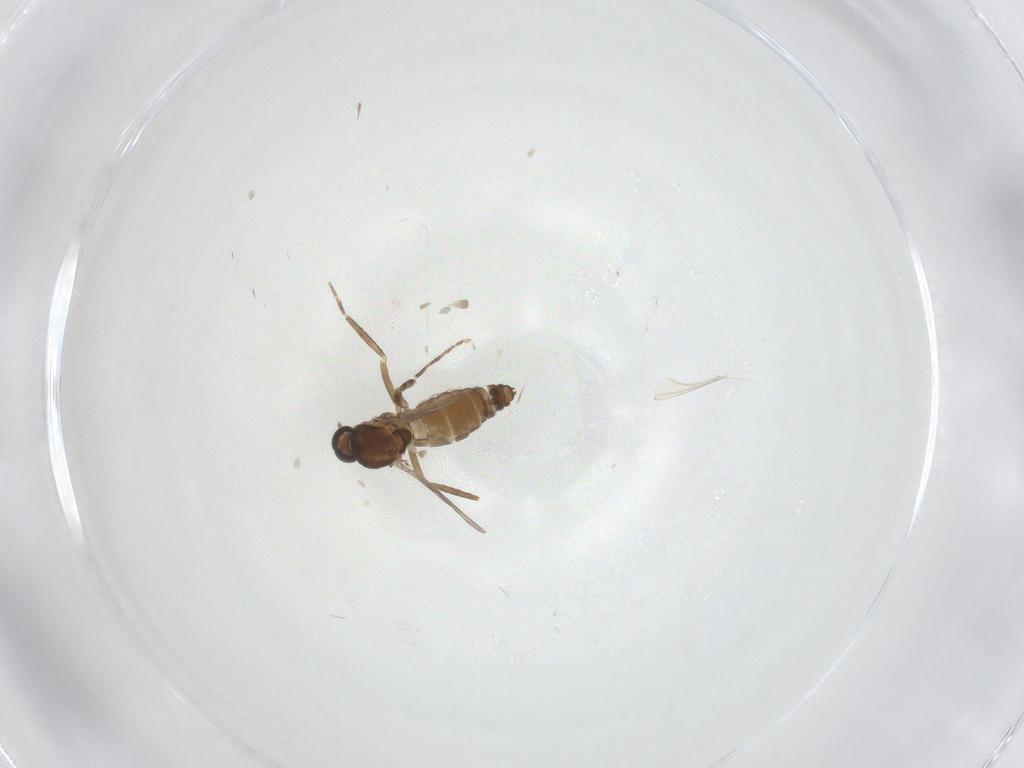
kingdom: Animalia
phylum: Arthropoda
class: Insecta
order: Diptera
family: Ceratopogonidae
